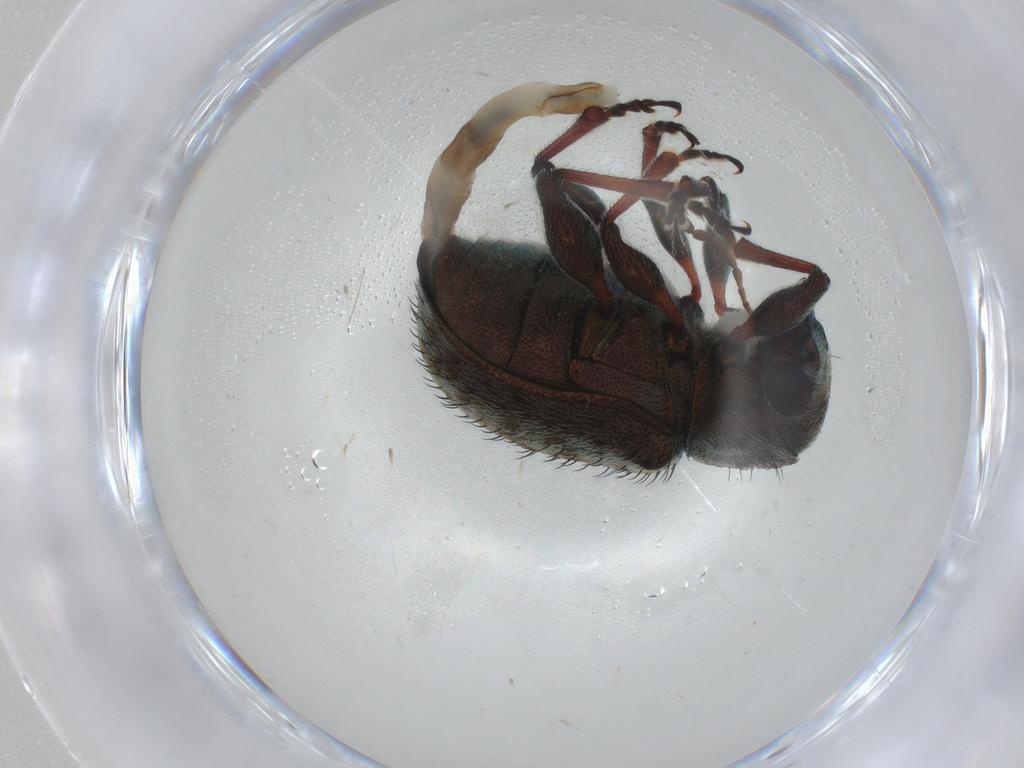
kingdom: Animalia
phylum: Arthropoda
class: Insecta
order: Coleoptera
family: Chrysomelidae
